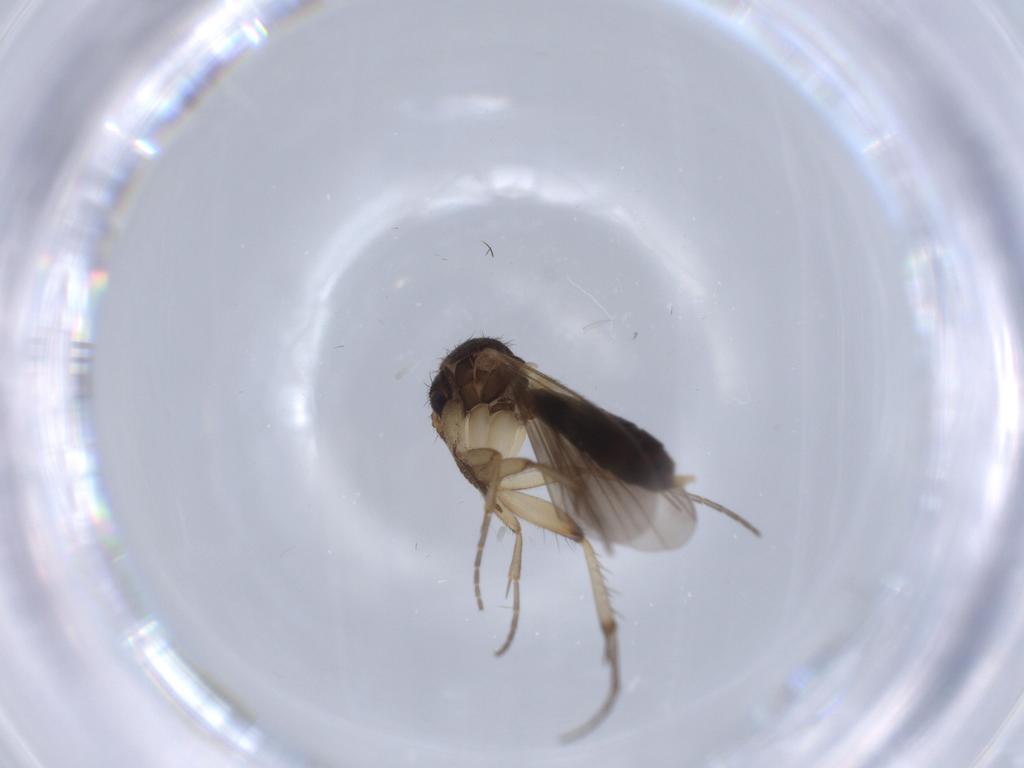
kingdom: Animalia
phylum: Arthropoda
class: Insecta
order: Diptera
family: Mycetophilidae
